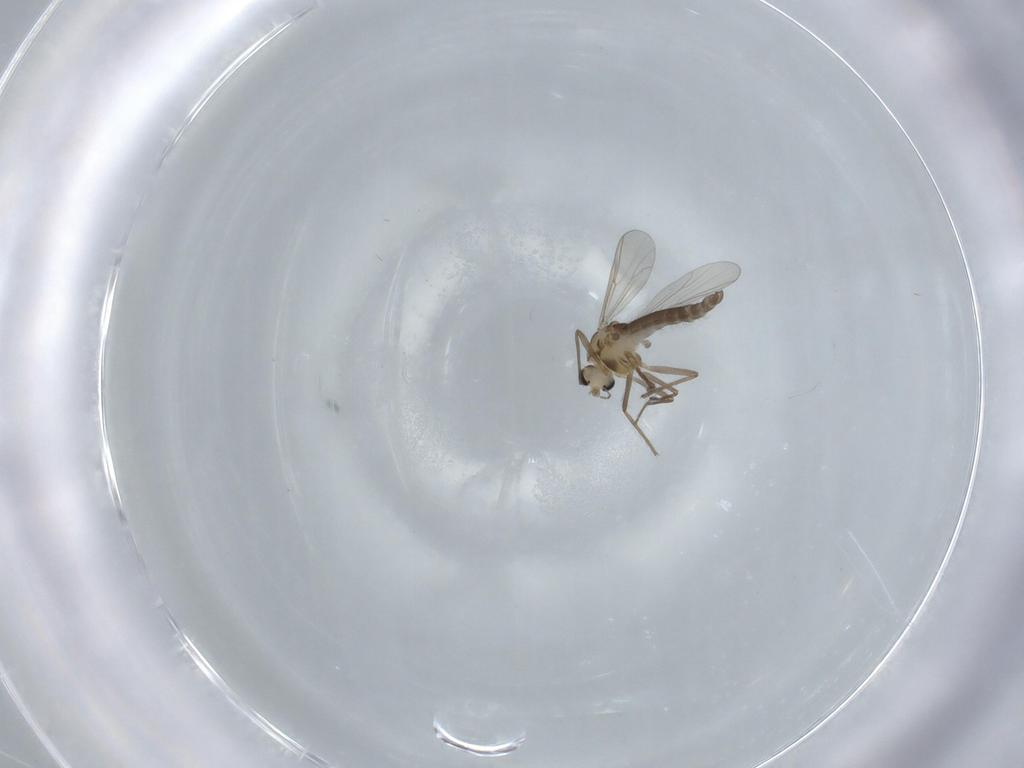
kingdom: Animalia
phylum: Arthropoda
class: Insecta
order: Diptera
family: Chironomidae
